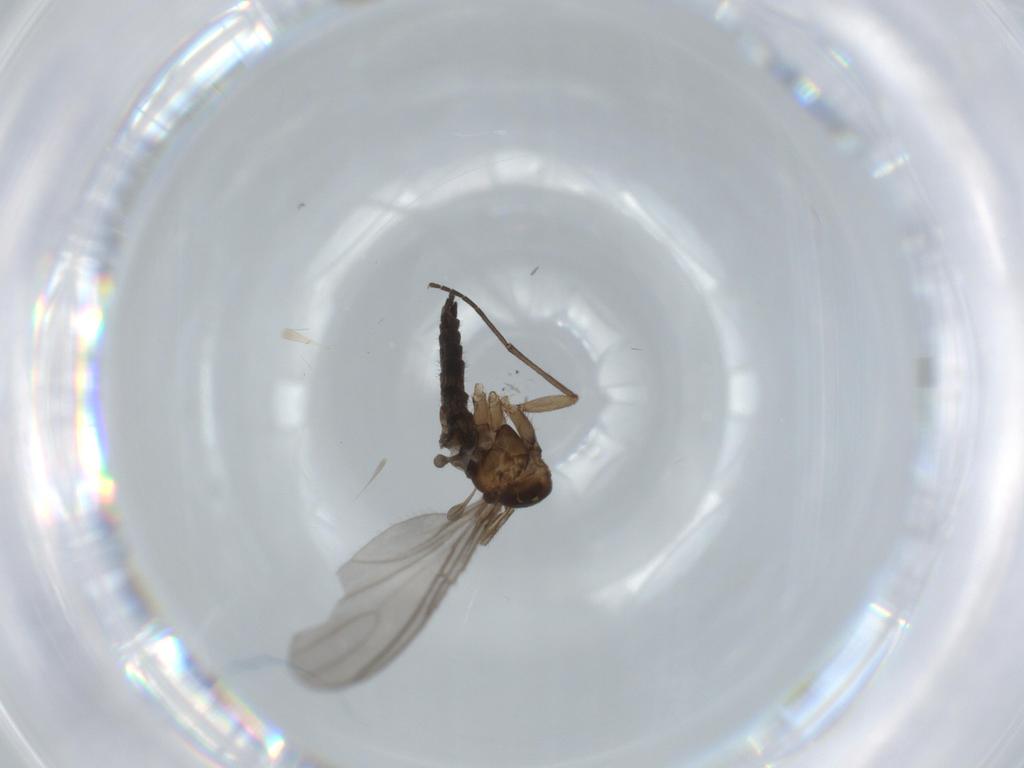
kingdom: Animalia
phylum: Arthropoda
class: Insecta
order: Diptera
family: Sciaridae
